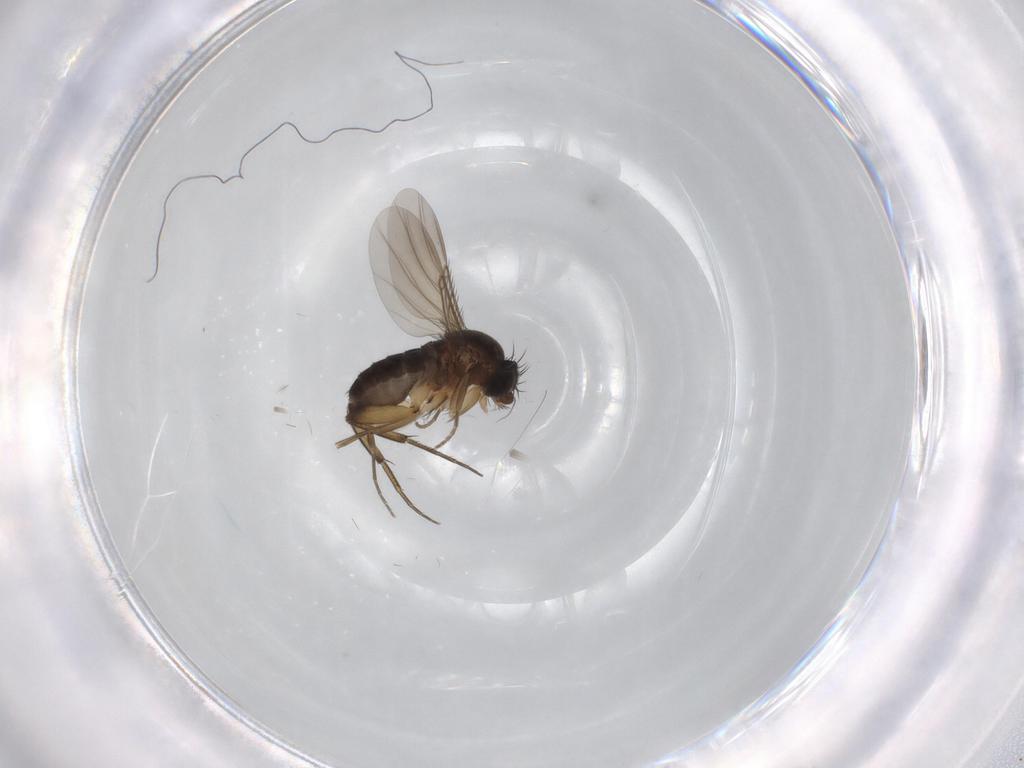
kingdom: Animalia
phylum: Arthropoda
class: Insecta
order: Diptera
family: Phoridae
